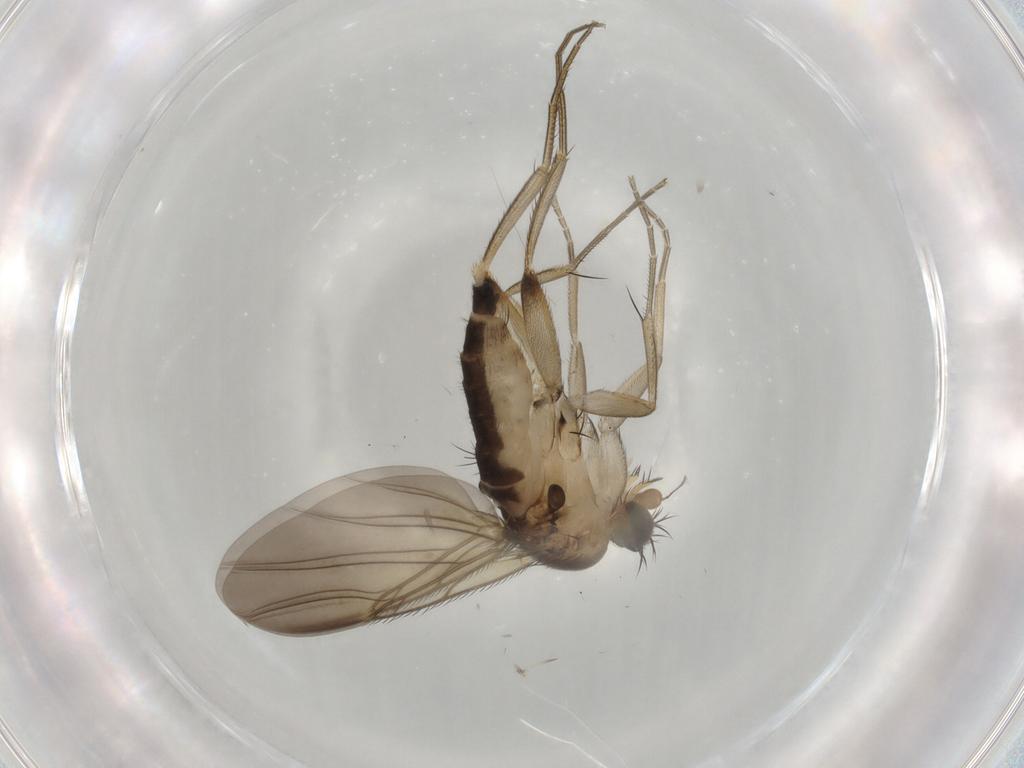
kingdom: Animalia
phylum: Arthropoda
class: Insecta
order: Diptera
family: Phoridae
